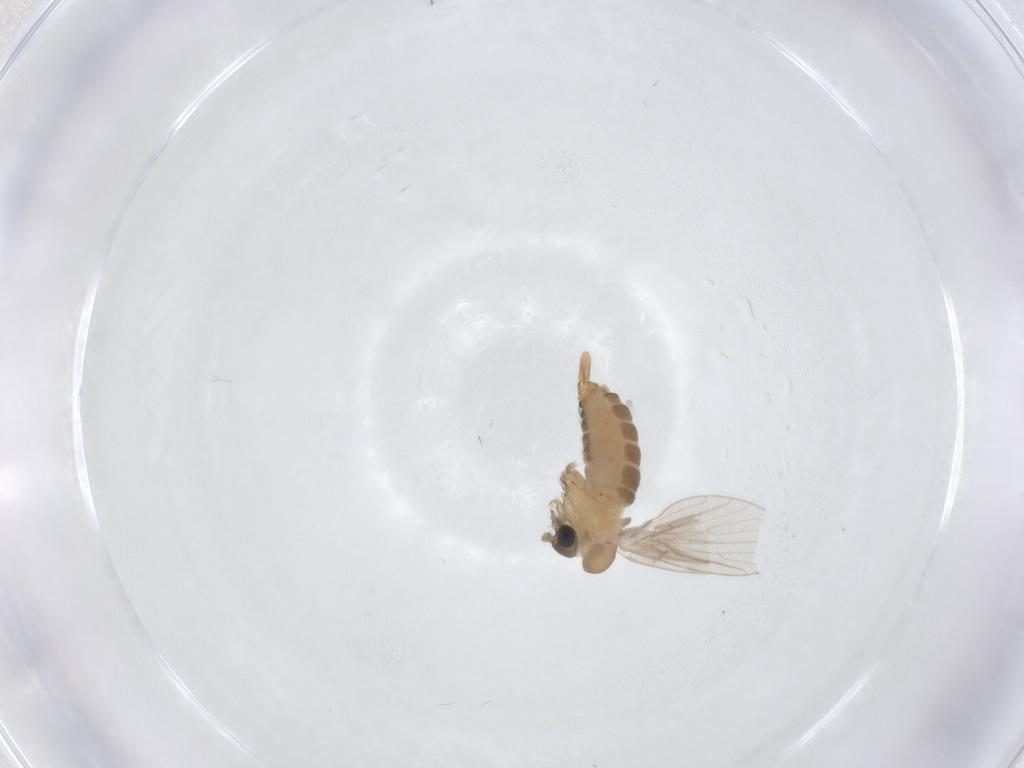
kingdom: Animalia
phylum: Arthropoda
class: Insecta
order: Diptera
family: Psychodidae
